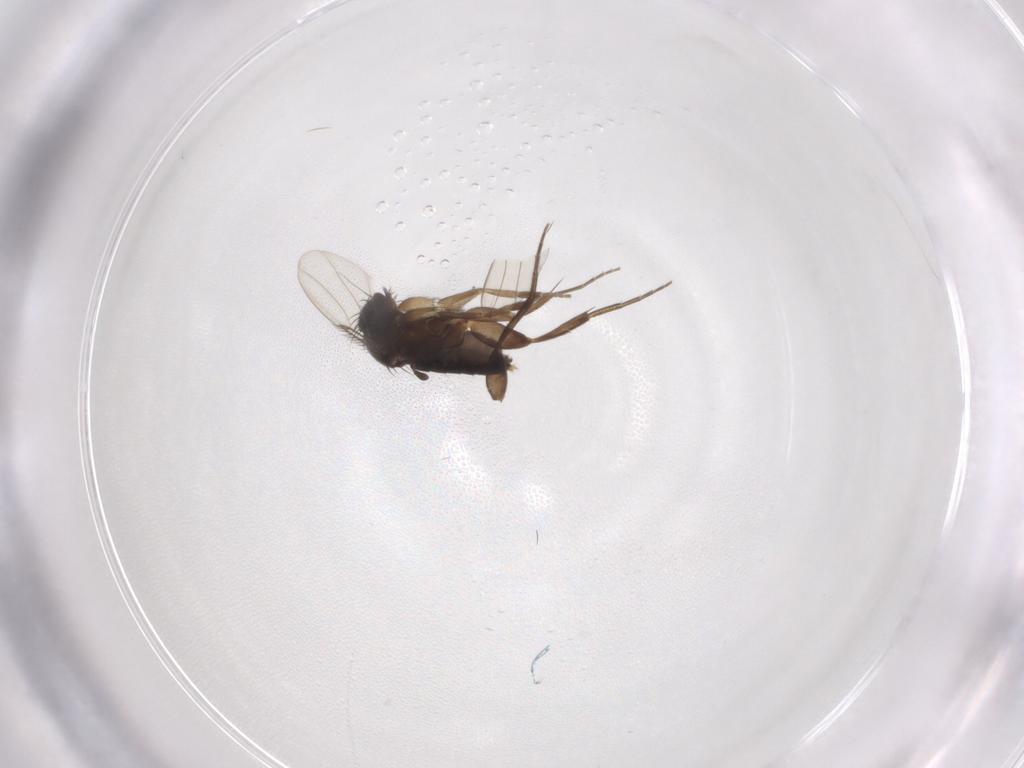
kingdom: Animalia
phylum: Arthropoda
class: Insecta
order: Diptera
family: Phoridae
